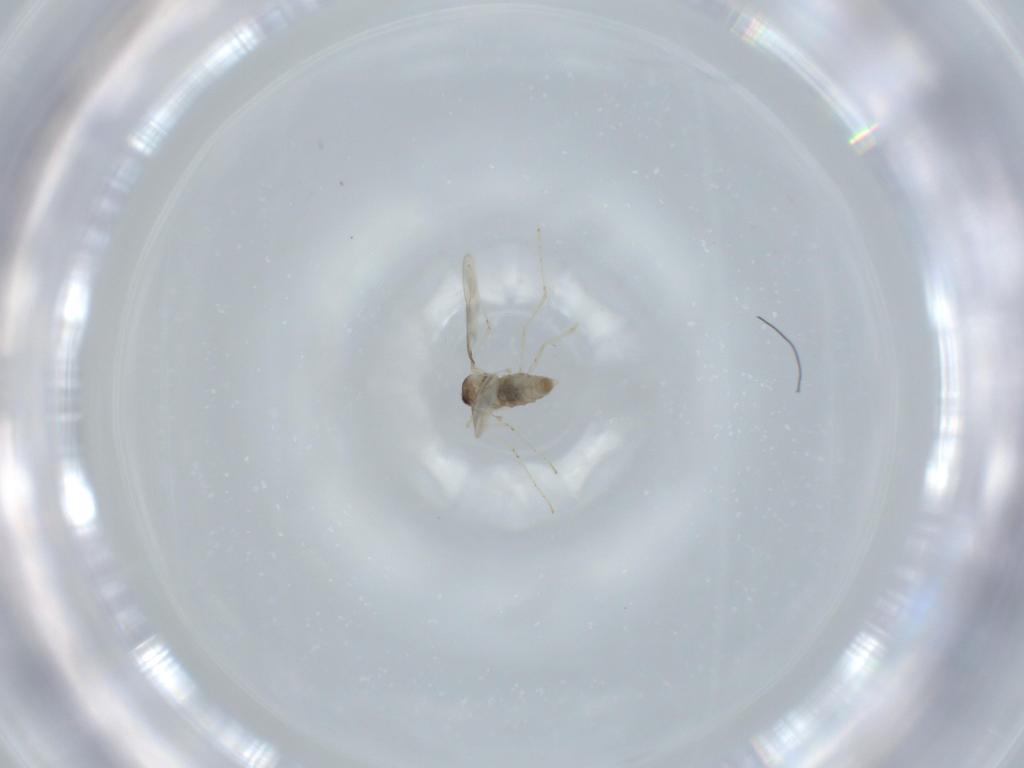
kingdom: Animalia
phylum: Arthropoda
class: Insecta
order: Diptera
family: Cecidomyiidae
